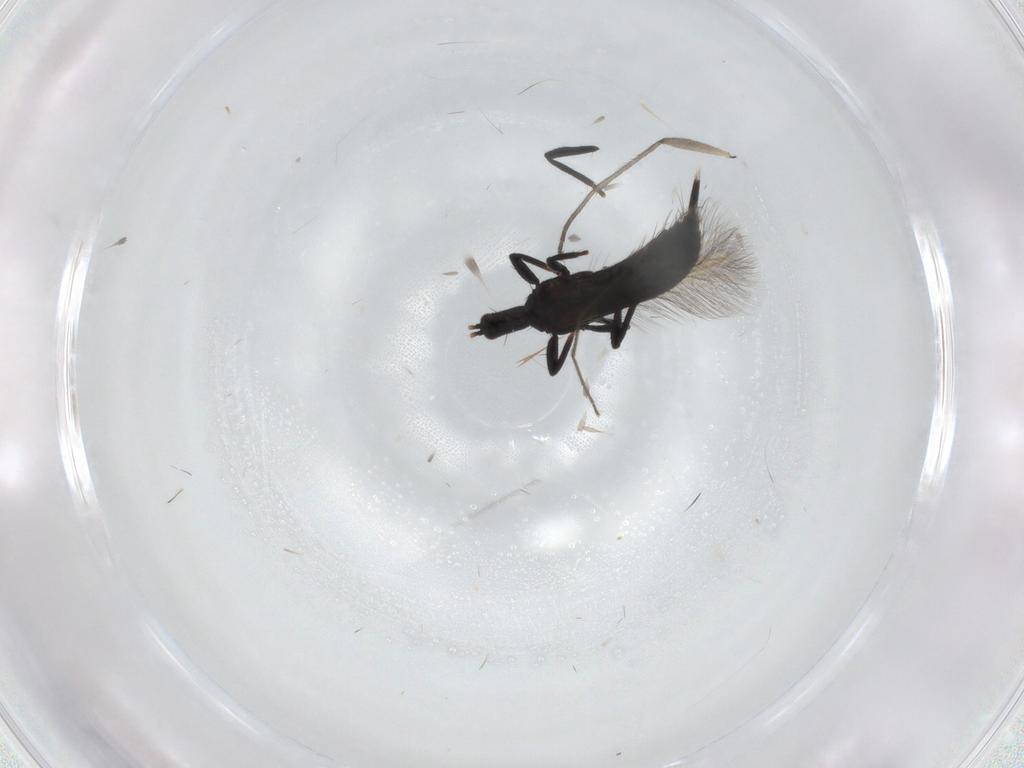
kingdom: Animalia
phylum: Arthropoda
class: Insecta
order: Thysanoptera
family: Phlaeothripidae
